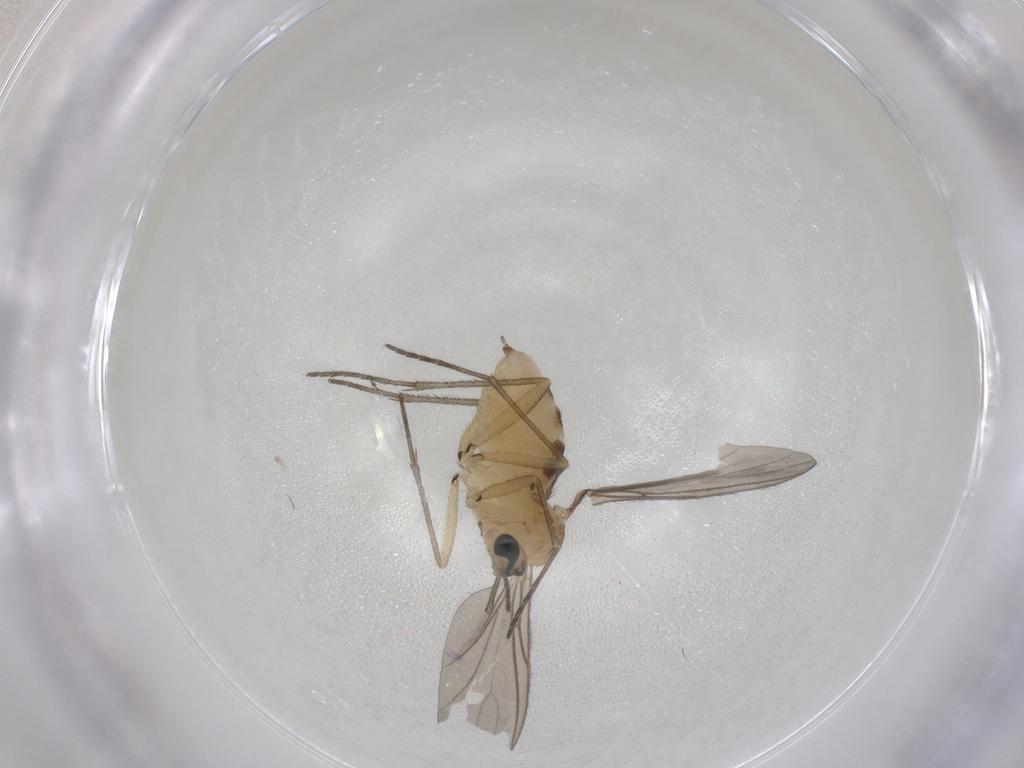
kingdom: Animalia
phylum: Arthropoda
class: Insecta
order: Diptera
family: Sciaridae
